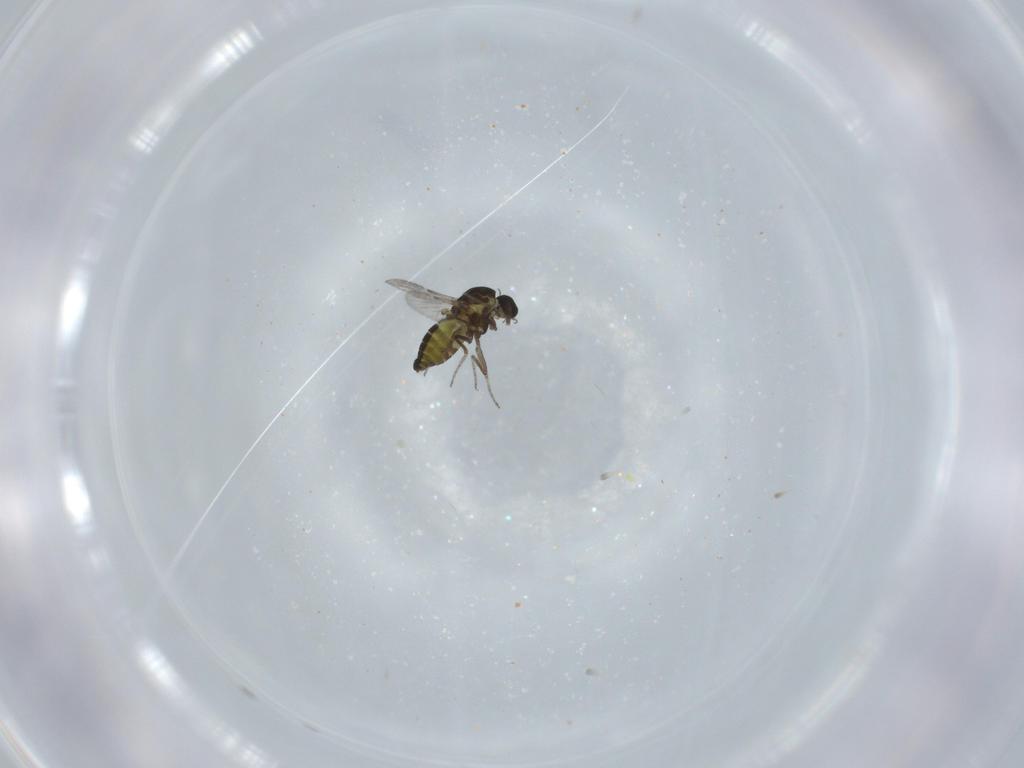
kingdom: Animalia
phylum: Arthropoda
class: Insecta
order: Diptera
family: Ceratopogonidae
